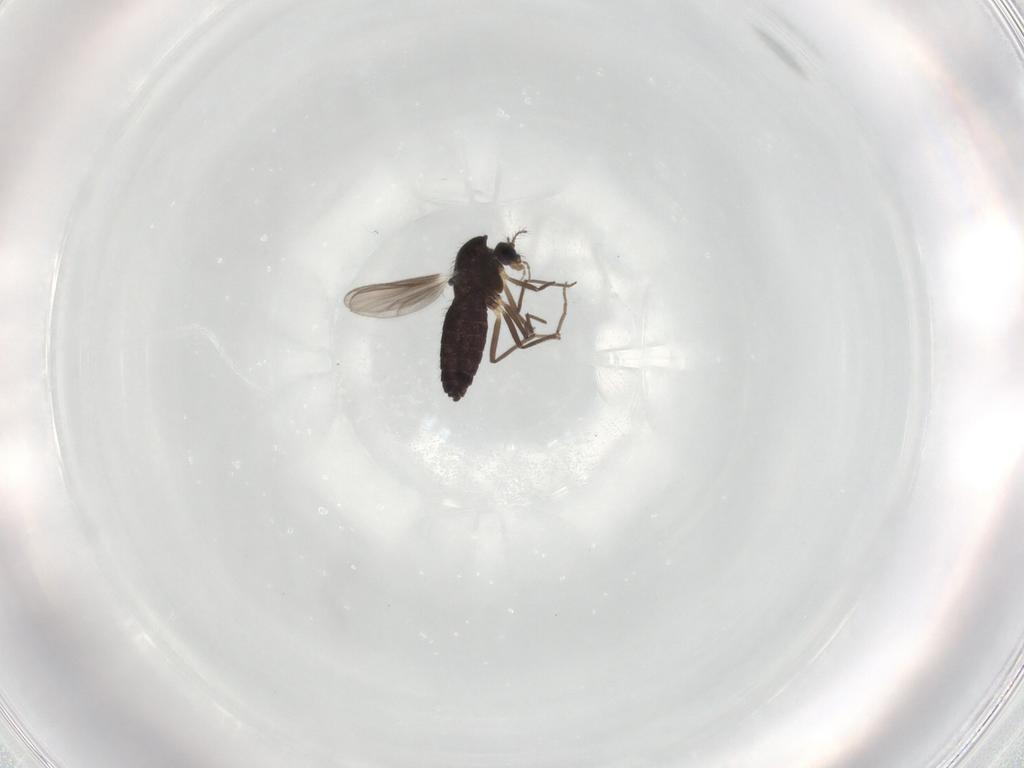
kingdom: Animalia
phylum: Arthropoda
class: Insecta
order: Diptera
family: Chironomidae
